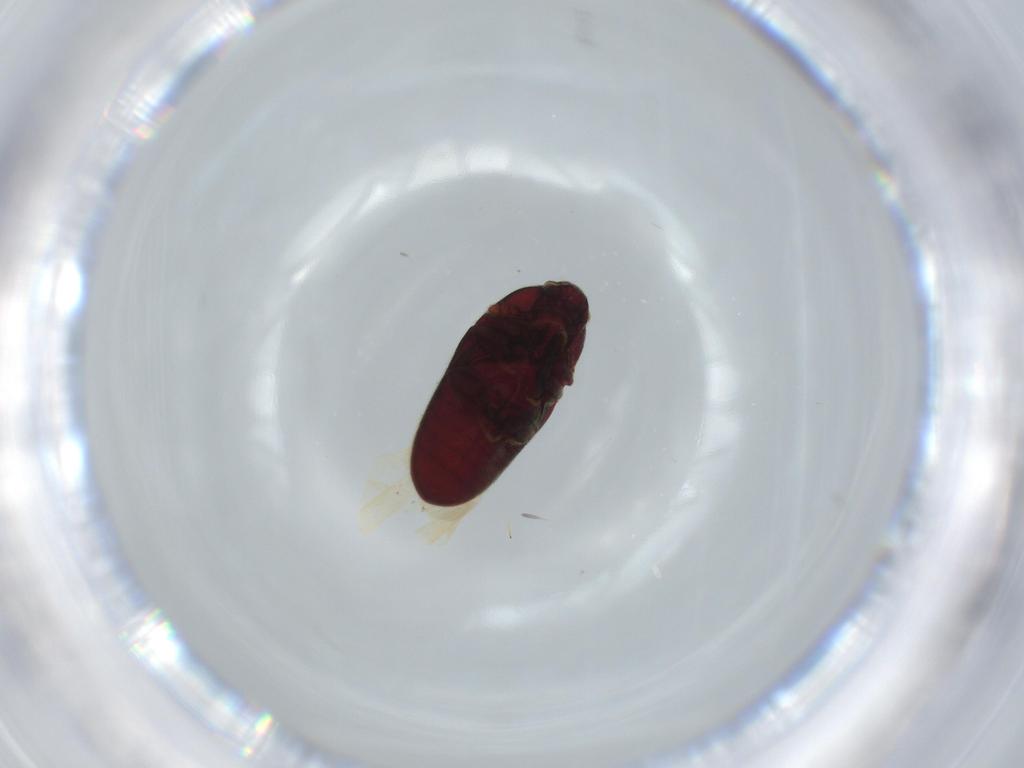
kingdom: Animalia
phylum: Arthropoda
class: Insecta
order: Coleoptera
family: Throscidae
